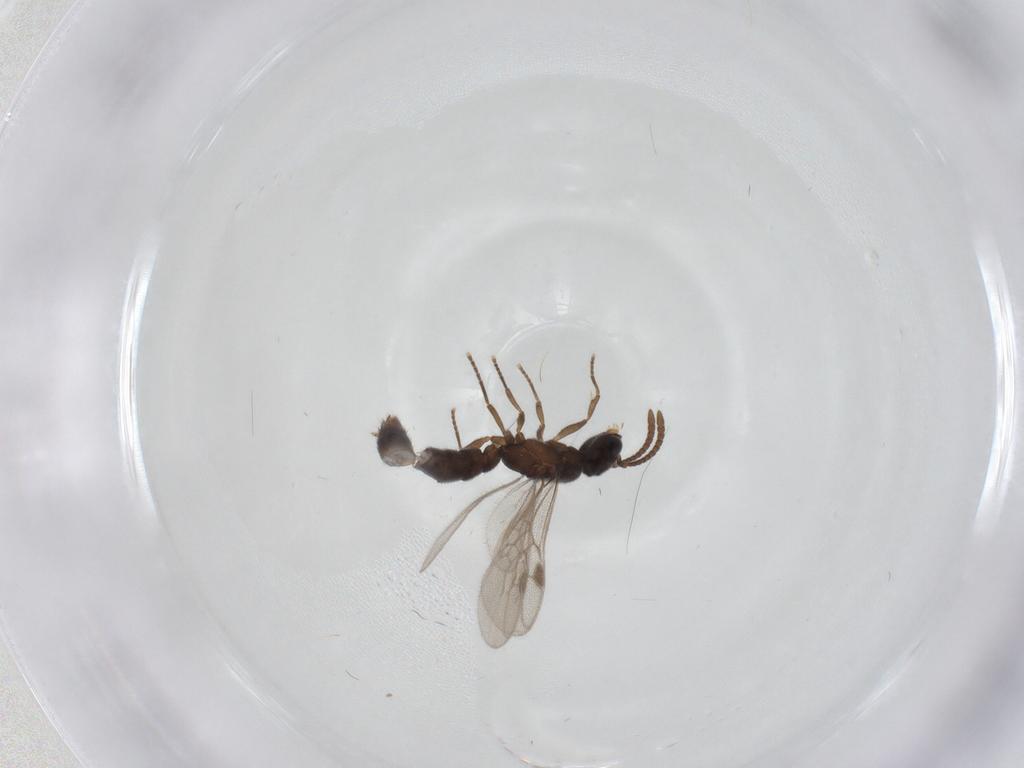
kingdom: Animalia
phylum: Arthropoda
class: Insecta
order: Hymenoptera
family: Formicidae
